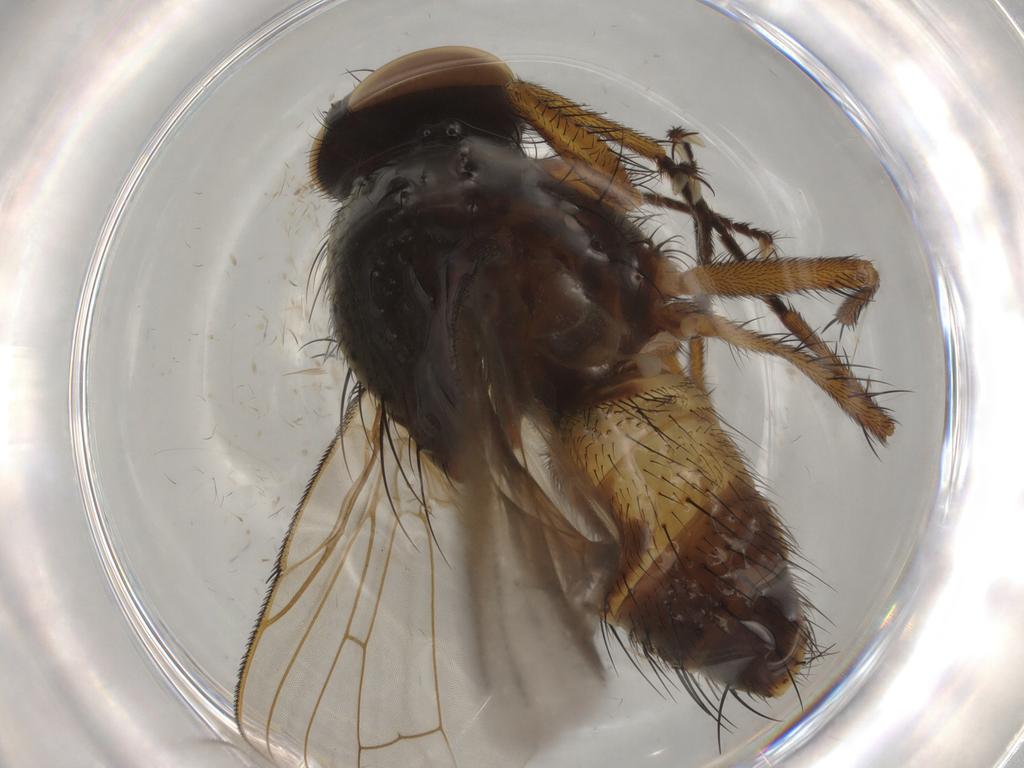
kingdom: Animalia
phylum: Arthropoda
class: Insecta
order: Diptera
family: Muscidae
